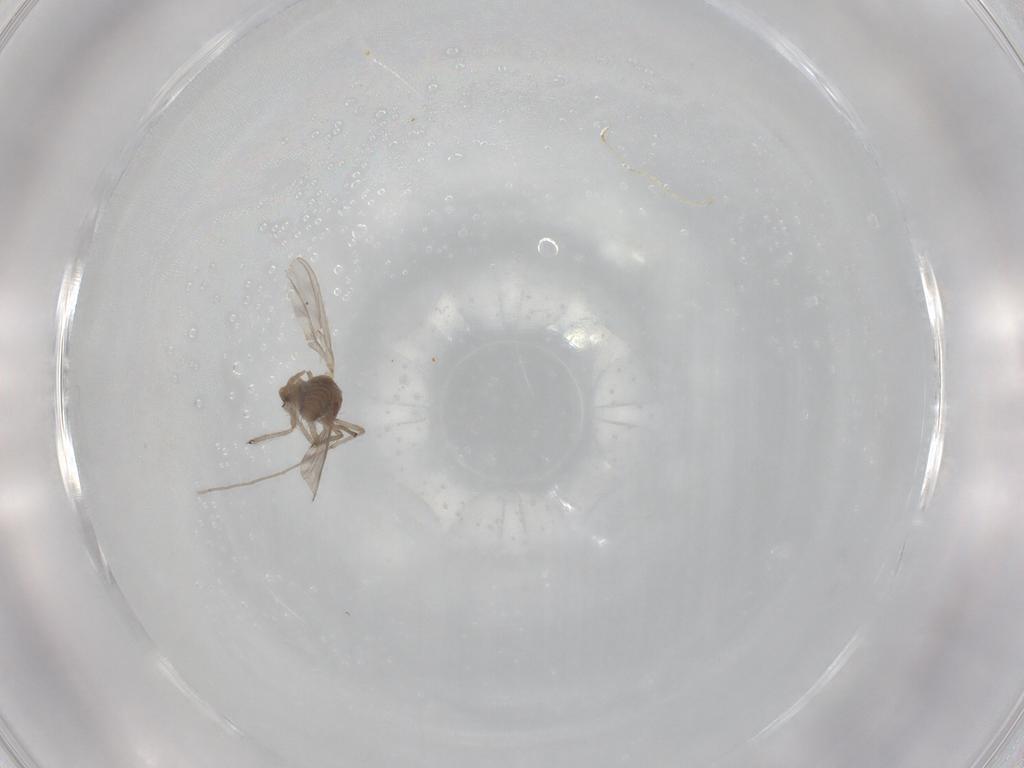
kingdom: Animalia
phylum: Arthropoda
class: Insecta
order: Diptera
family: Chironomidae
